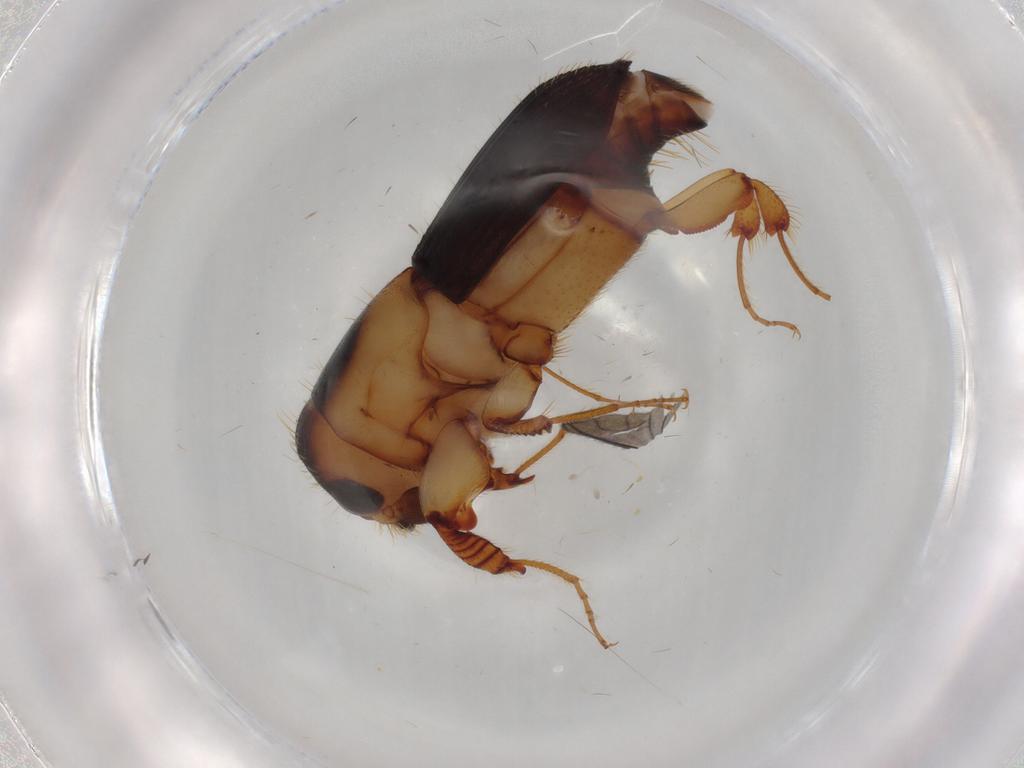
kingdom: Animalia
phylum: Arthropoda
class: Insecta
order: Coleoptera
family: Curculionidae
